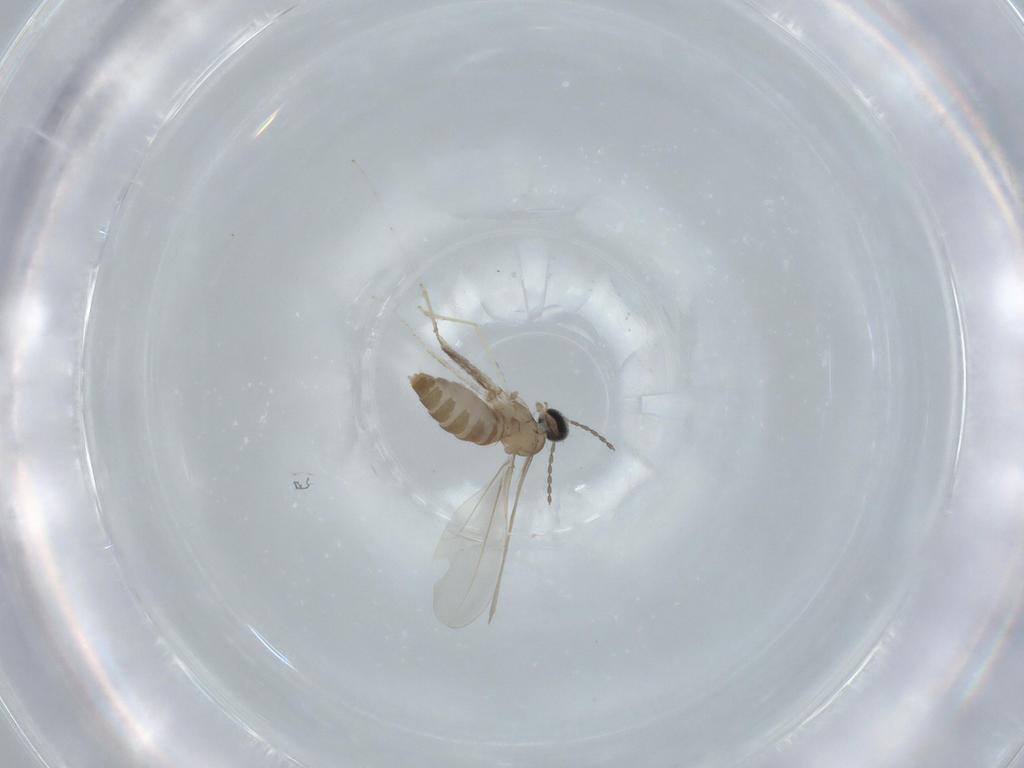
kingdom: Animalia
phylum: Arthropoda
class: Insecta
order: Diptera
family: Cecidomyiidae
